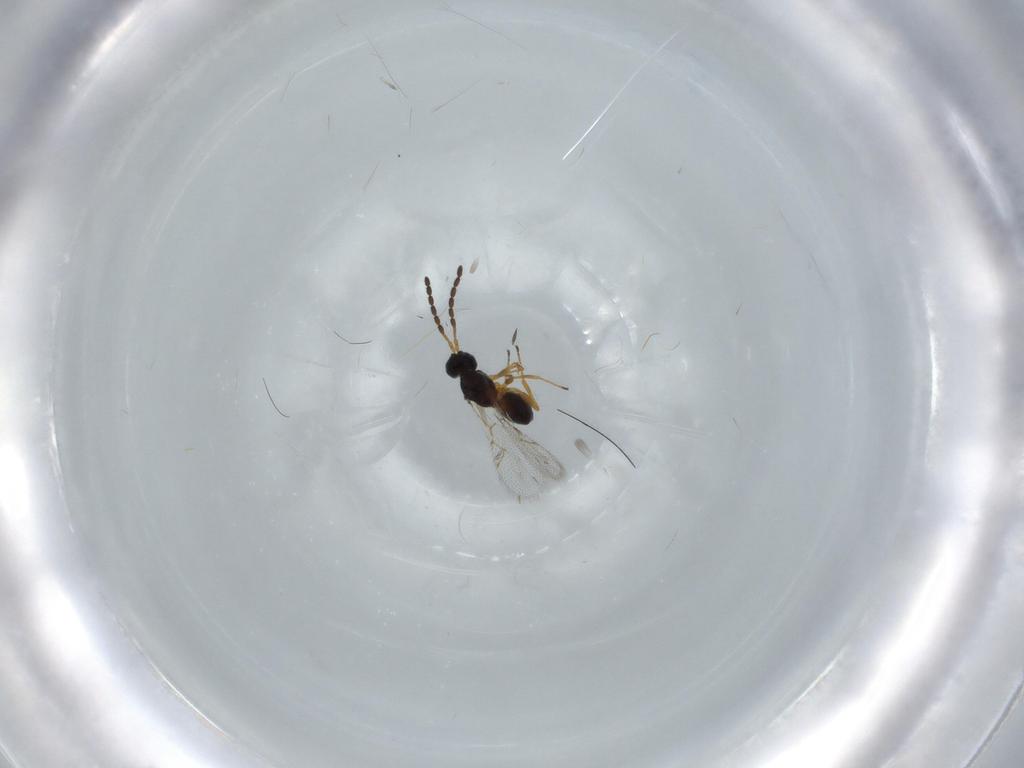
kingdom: Animalia
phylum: Arthropoda
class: Insecta
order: Hymenoptera
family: Figitidae
